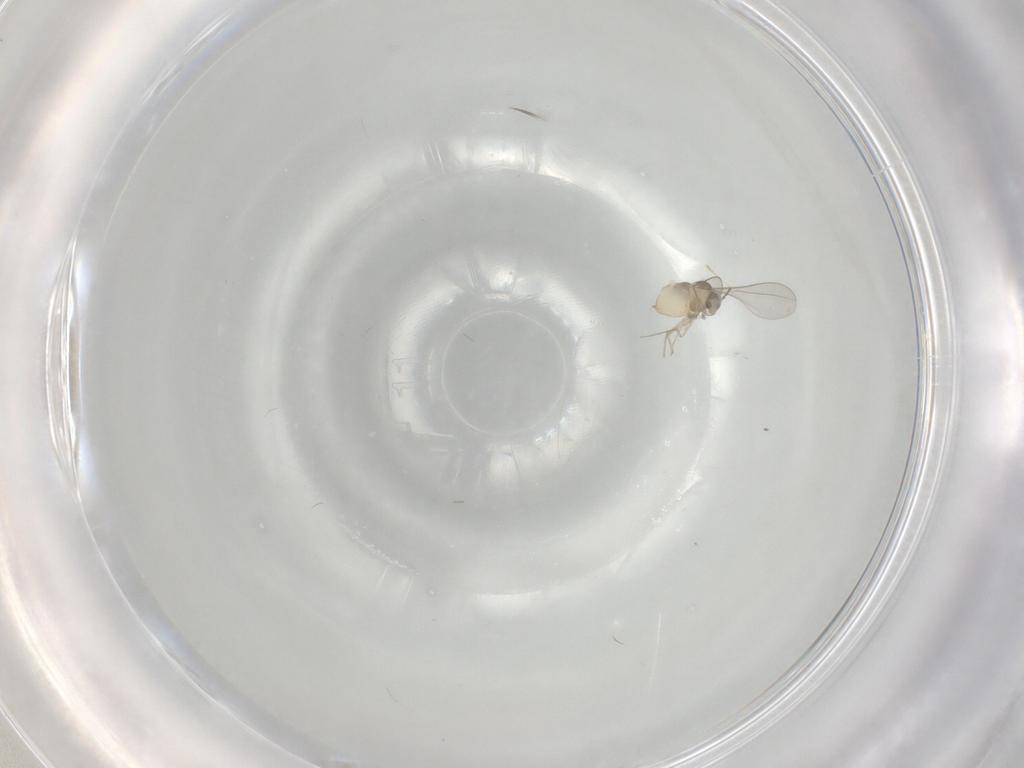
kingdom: Animalia
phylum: Arthropoda
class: Insecta
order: Diptera
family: Cecidomyiidae
